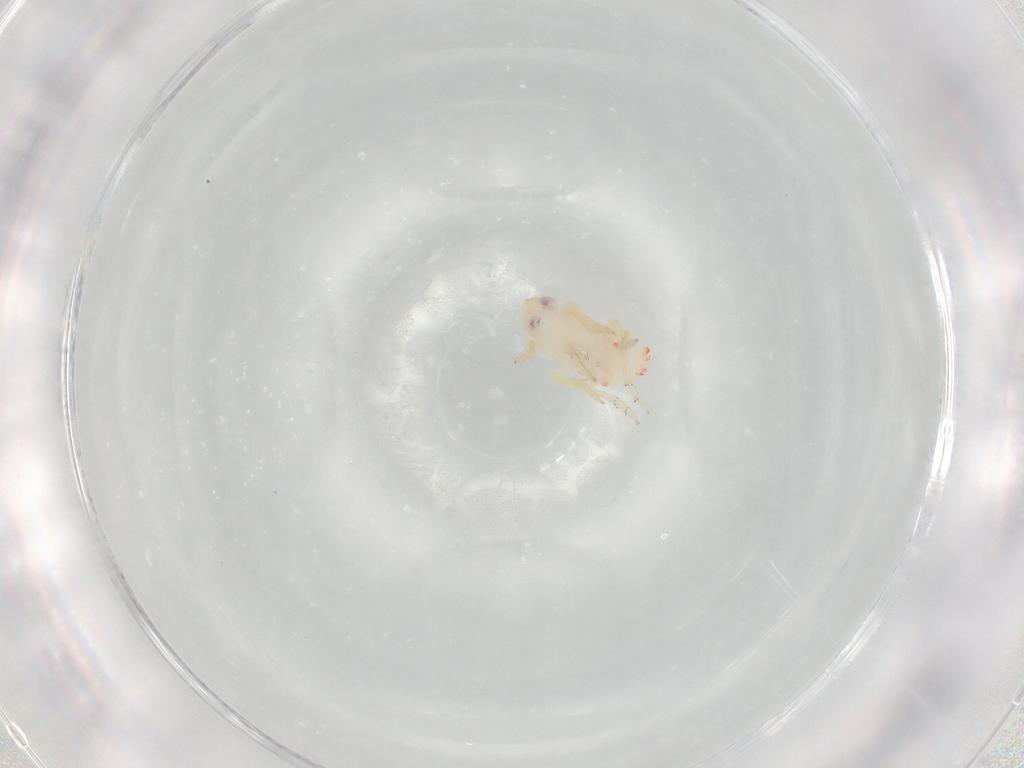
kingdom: Animalia
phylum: Arthropoda
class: Insecta
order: Hemiptera
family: Tropiduchidae
